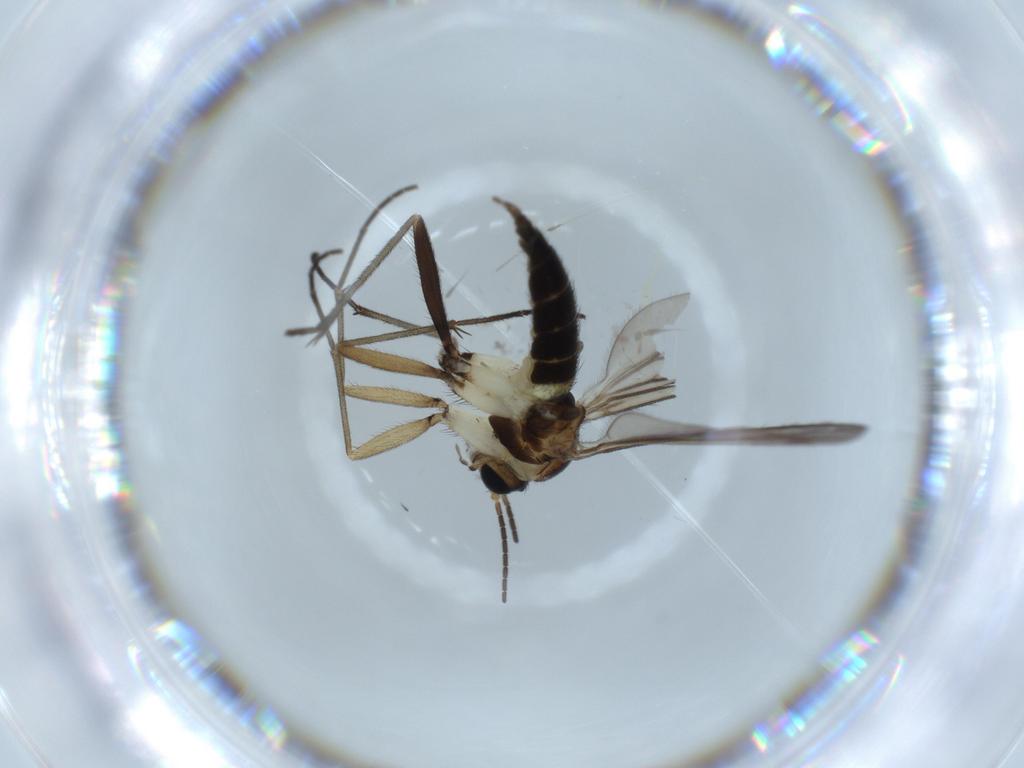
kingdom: Animalia
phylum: Arthropoda
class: Insecta
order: Diptera
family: Sciaridae
